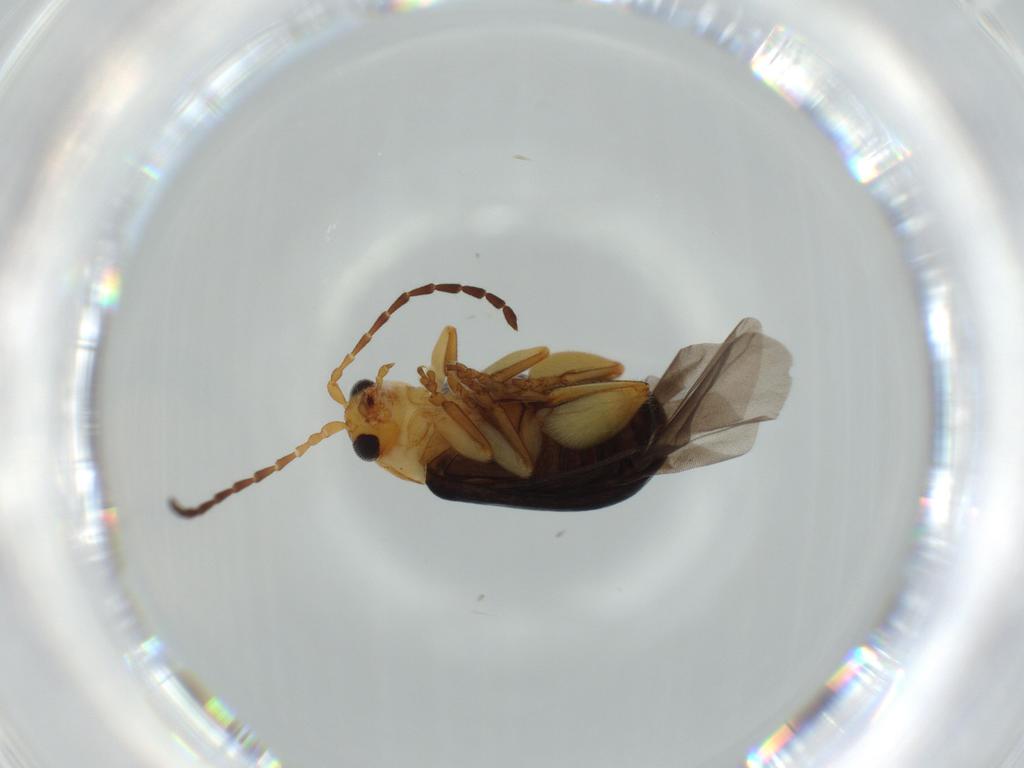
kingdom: Animalia
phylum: Arthropoda
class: Insecta
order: Coleoptera
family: Chrysomelidae
